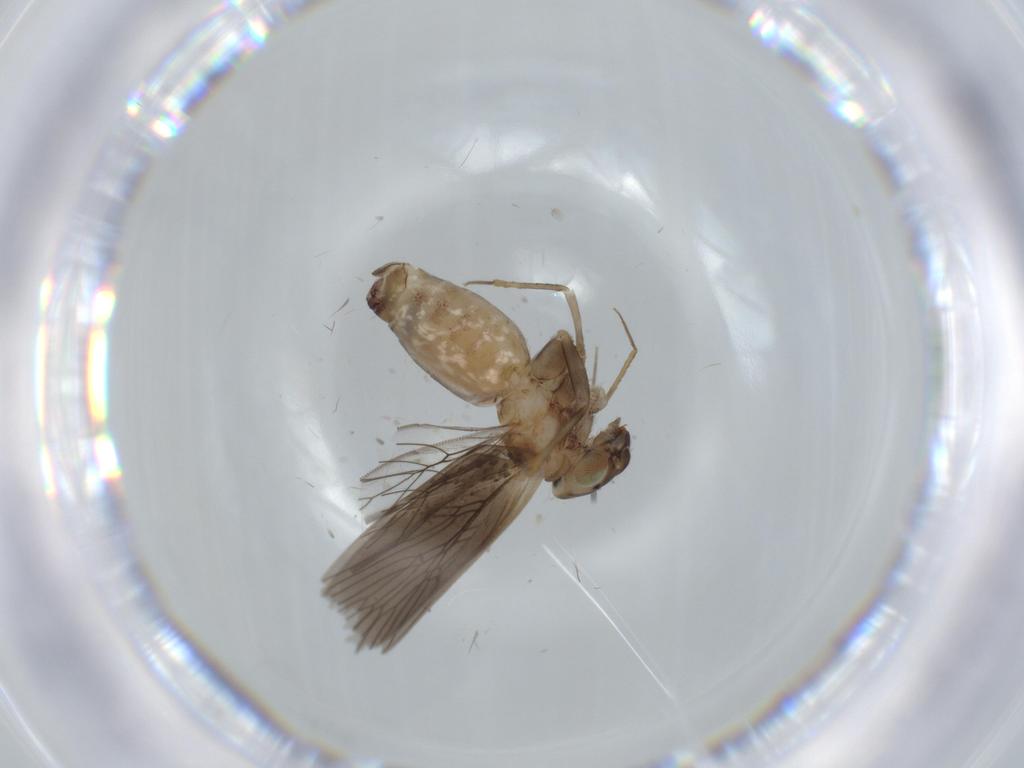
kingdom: Animalia
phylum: Arthropoda
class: Insecta
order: Psocodea
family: Lepidopsocidae
